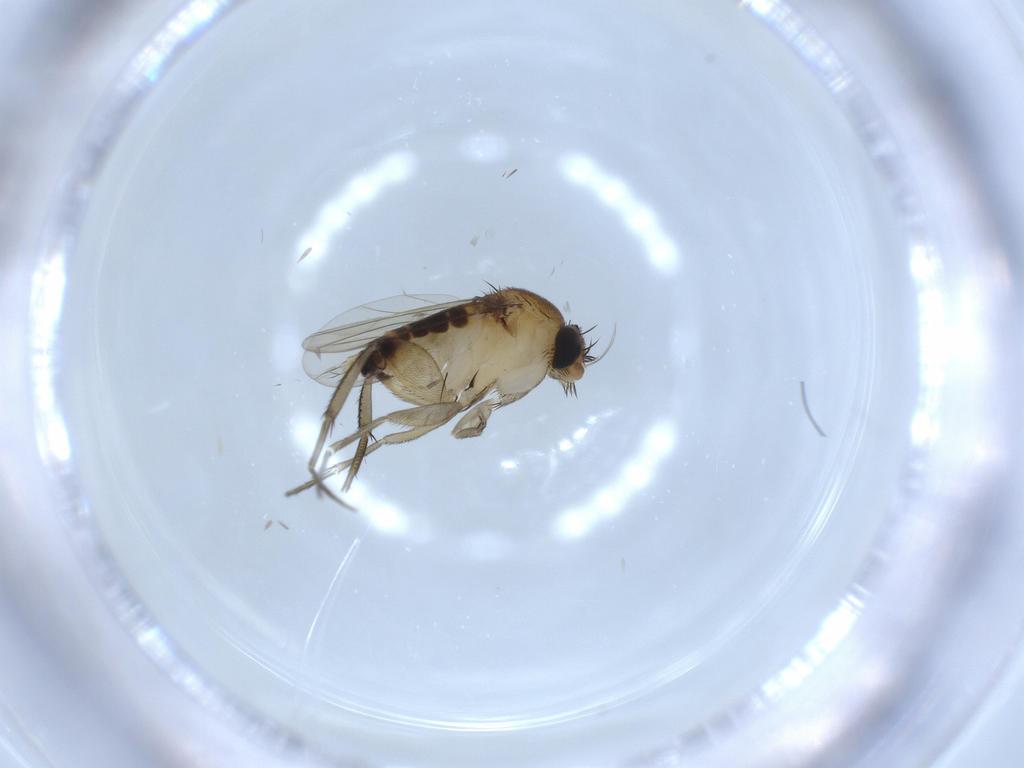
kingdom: Animalia
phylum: Arthropoda
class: Insecta
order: Diptera
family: Phoridae
